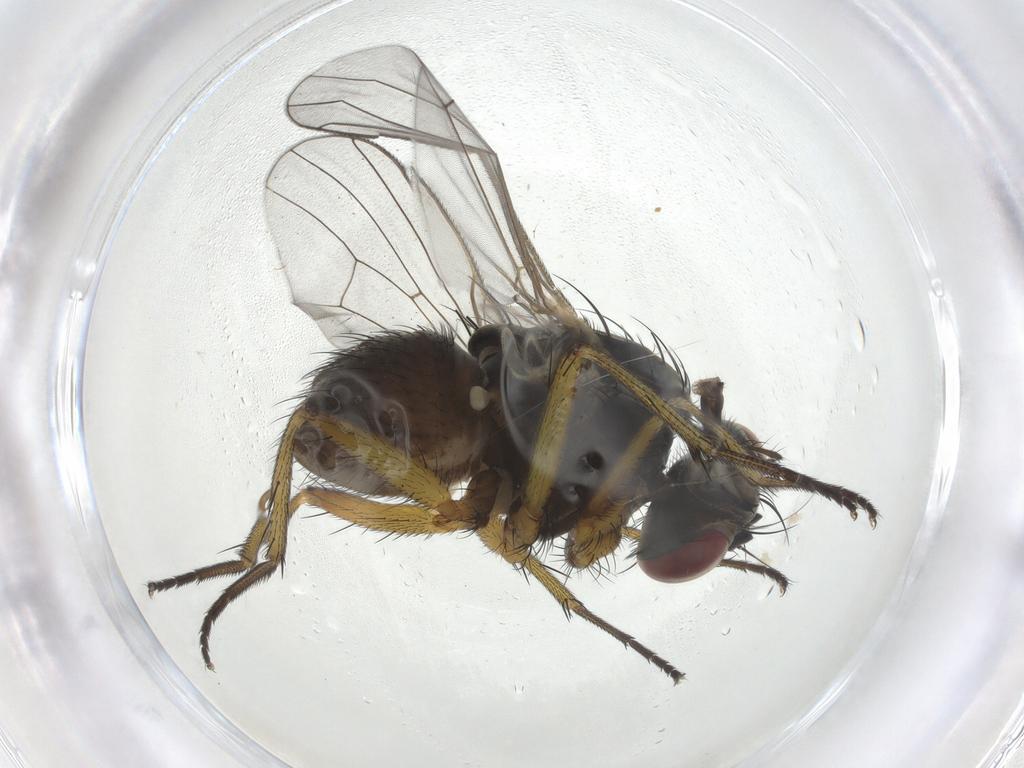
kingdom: Animalia
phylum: Arthropoda
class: Insecta
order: Diptera
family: Muscidae
